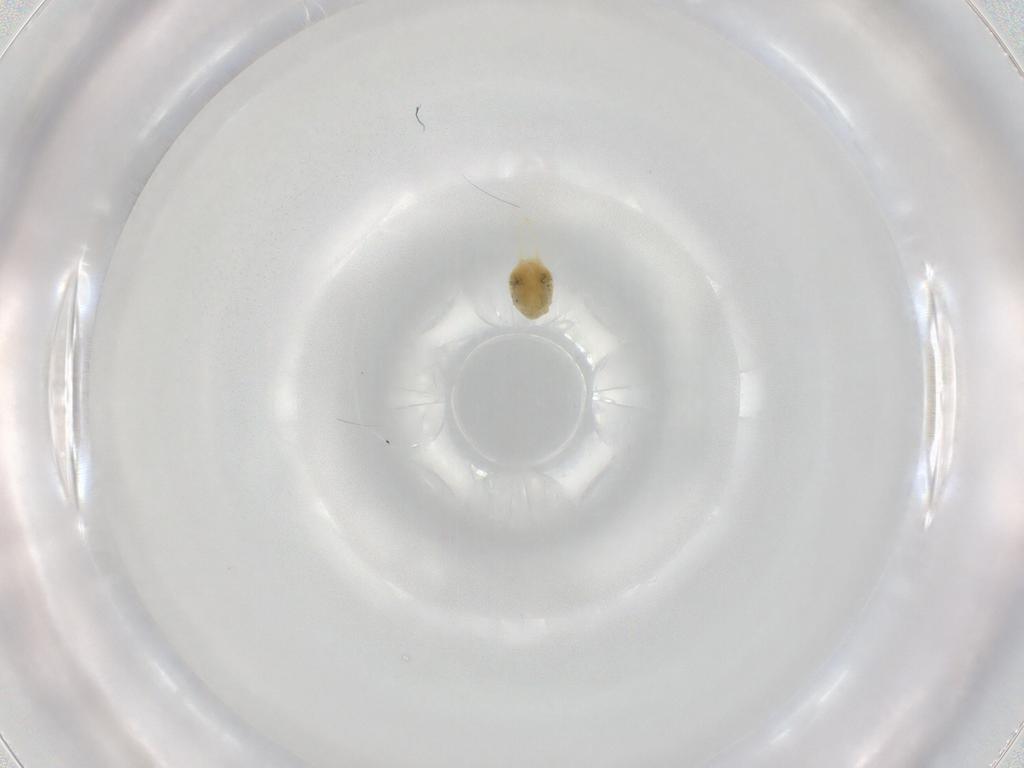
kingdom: Animalia
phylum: Arthropoda
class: Arachnida
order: Trombidiformes
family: Tetranychidae
